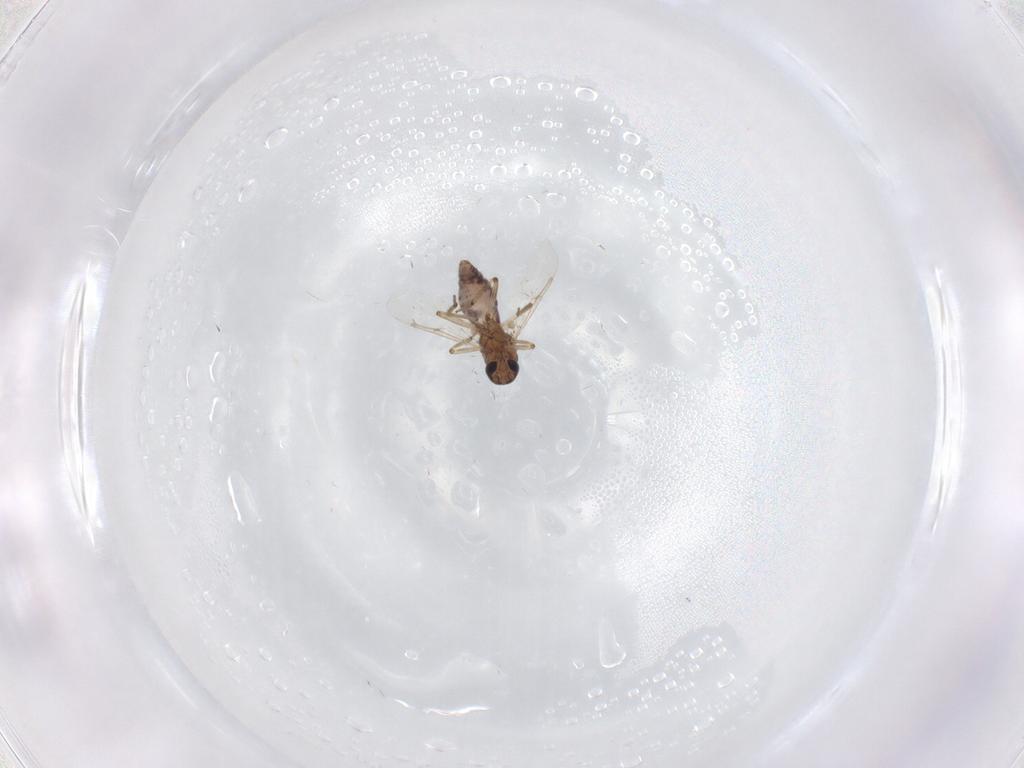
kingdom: Animalia
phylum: Arthropoda
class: Insecta
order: Diptera
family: Ceratopogonidae
